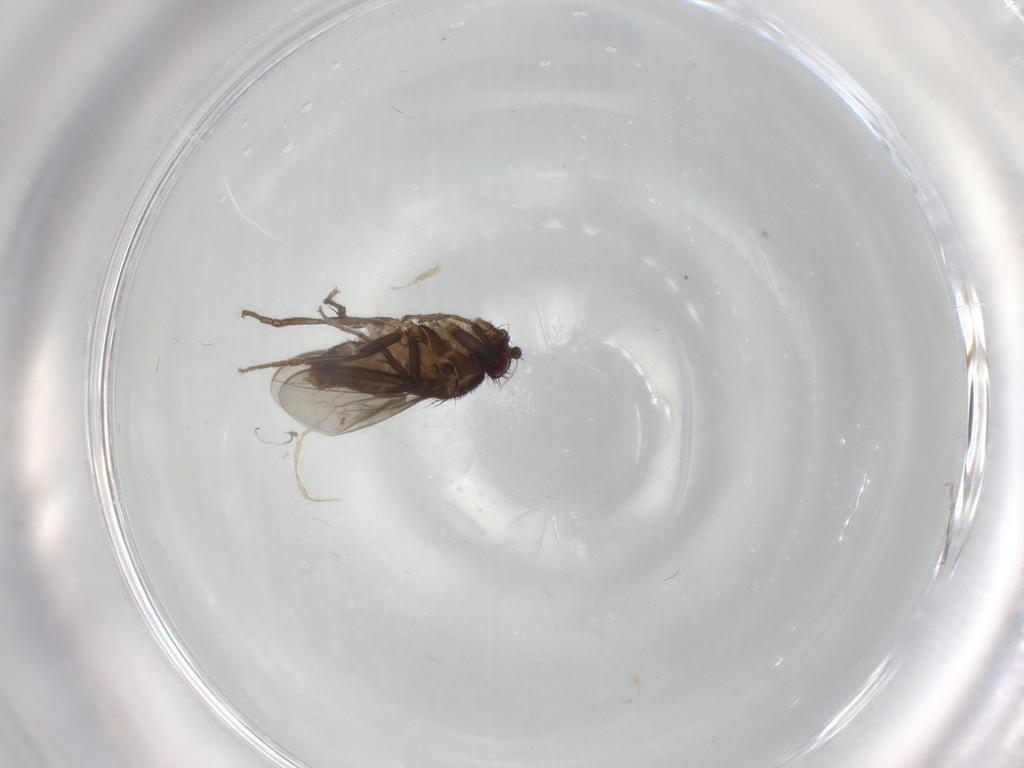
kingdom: Animalia
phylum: Arthropoda
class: Insecta
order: Diptera
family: Sphaeroceridae
